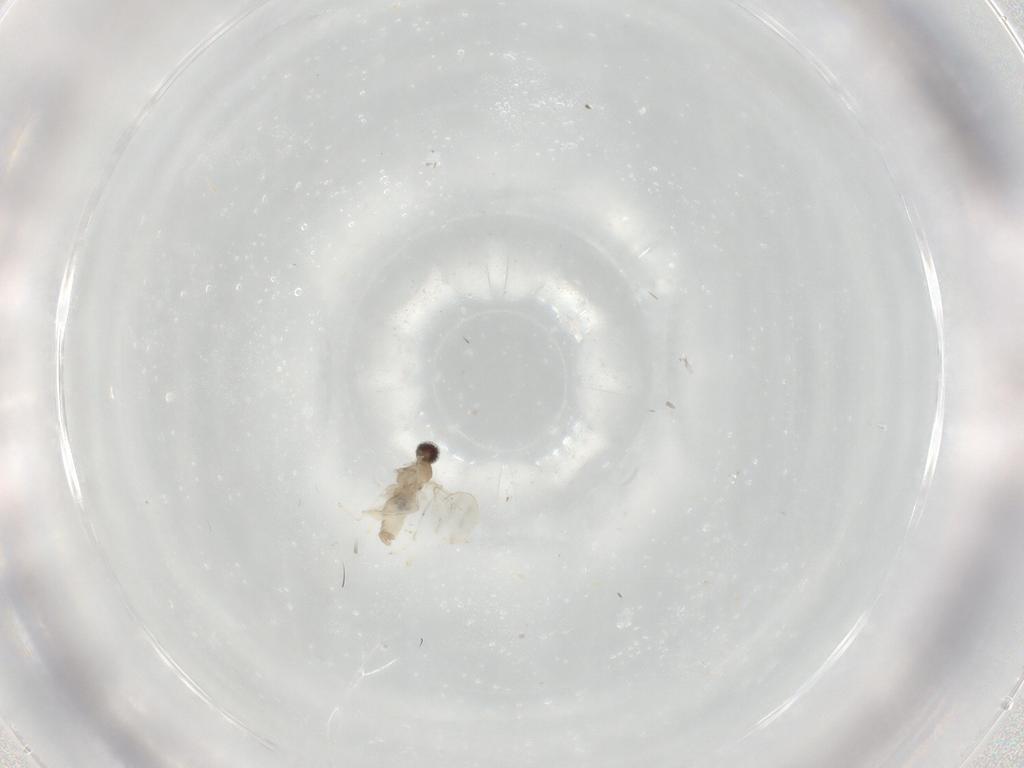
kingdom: Animalia
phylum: Arthropoda
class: Insecta
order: Diptera
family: Cecidomyiidae
